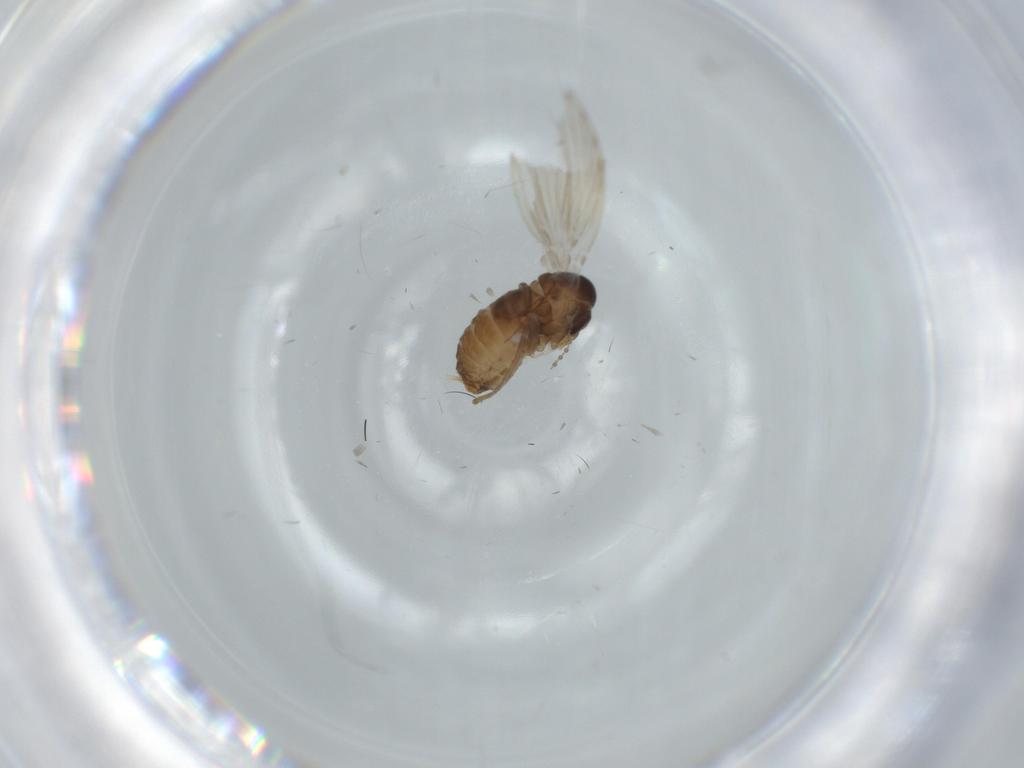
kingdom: Animalia
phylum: Arthropoda
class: Insecta
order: Diptera
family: Psychodidae
